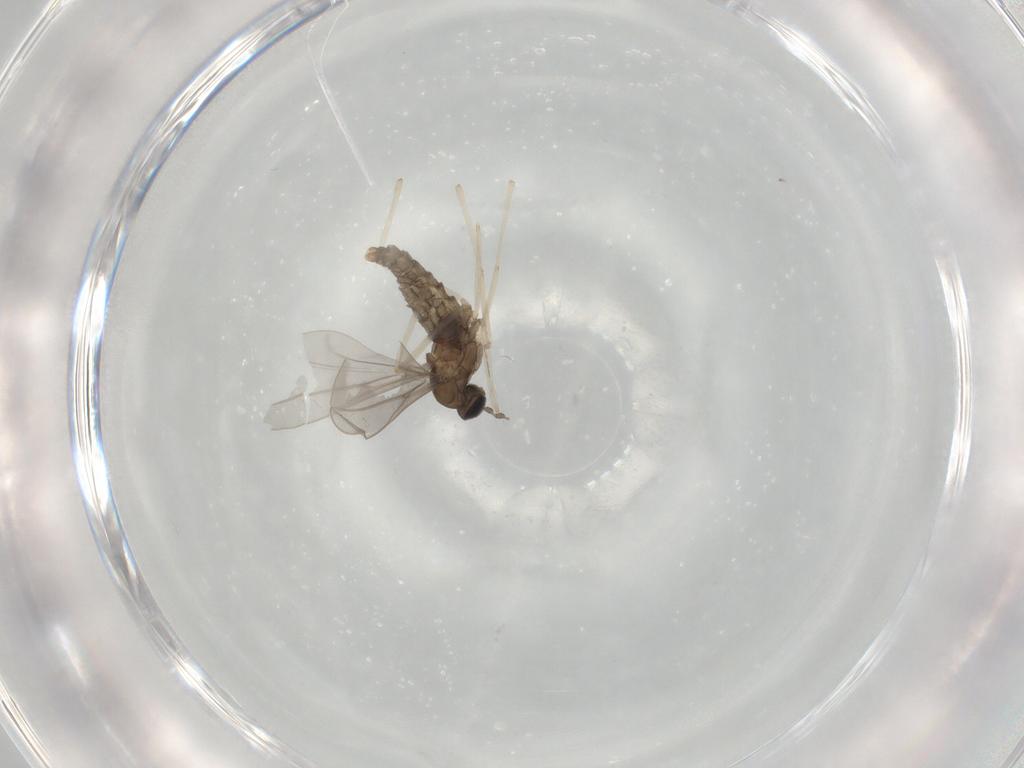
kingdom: Animalia
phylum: Arthropoda
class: Insecta
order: Diptera
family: Cecidomyiidae
